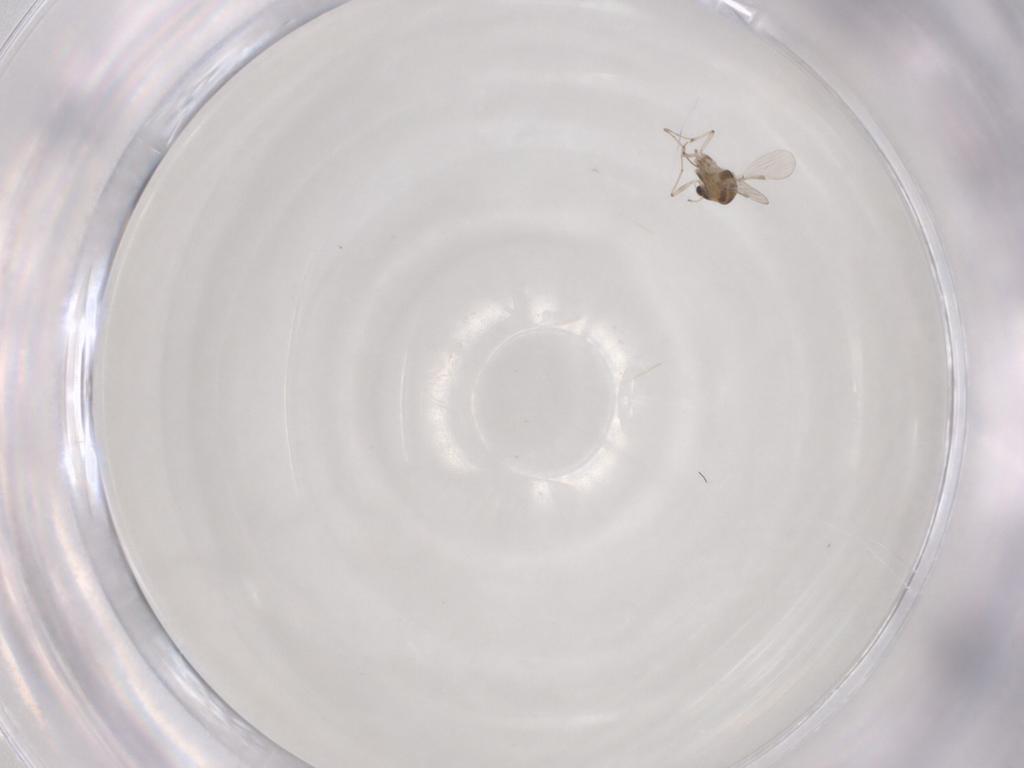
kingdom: Animalia
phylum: Arthropoda
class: Insecta
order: Diptera
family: Chironomidae
